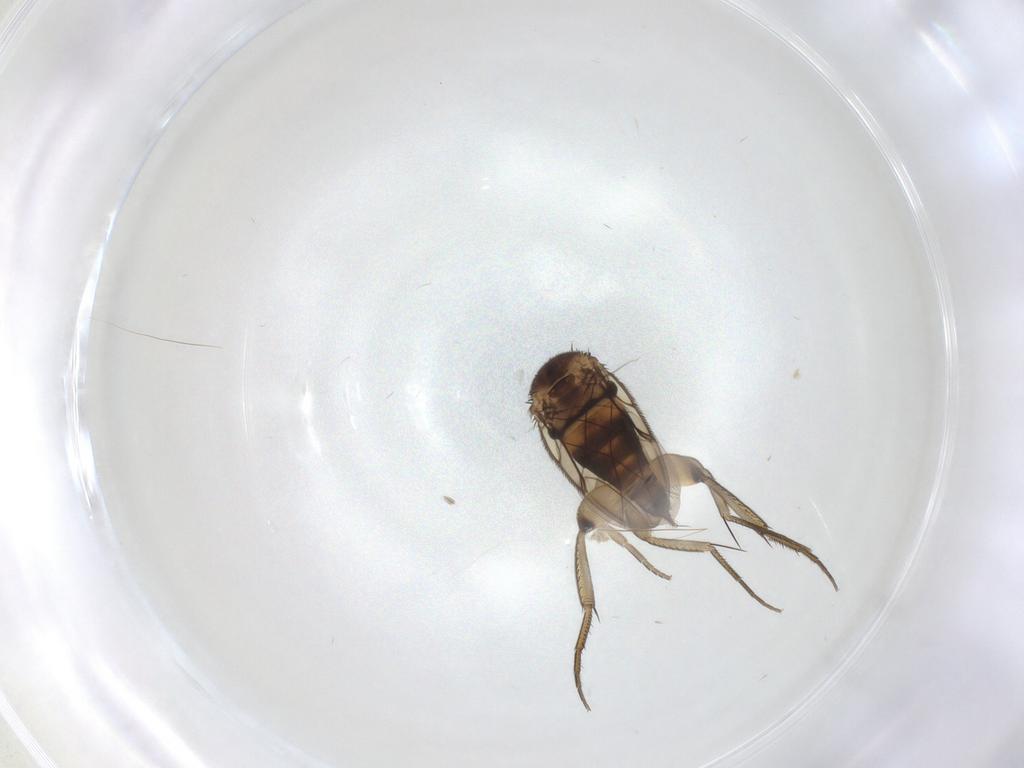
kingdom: Animalia
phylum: Arthropoda
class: Insecta
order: Diptera
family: Phoridae
